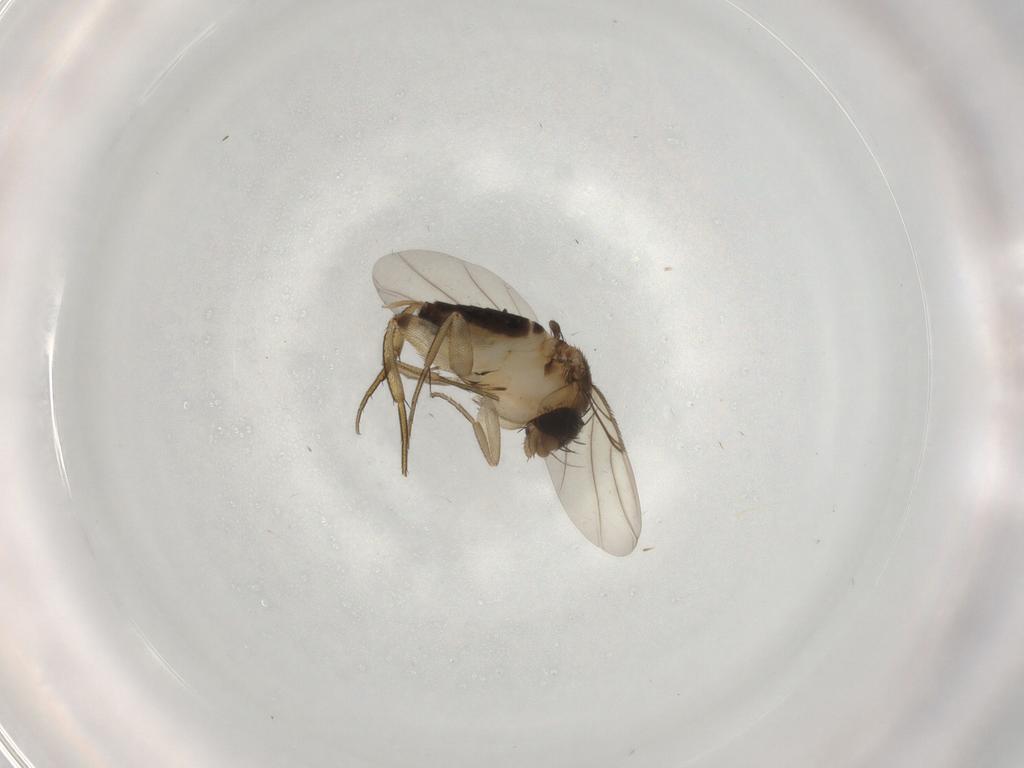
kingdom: Animalia
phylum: Arthropoda
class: Insecta
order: Diptera
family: Phoridae
